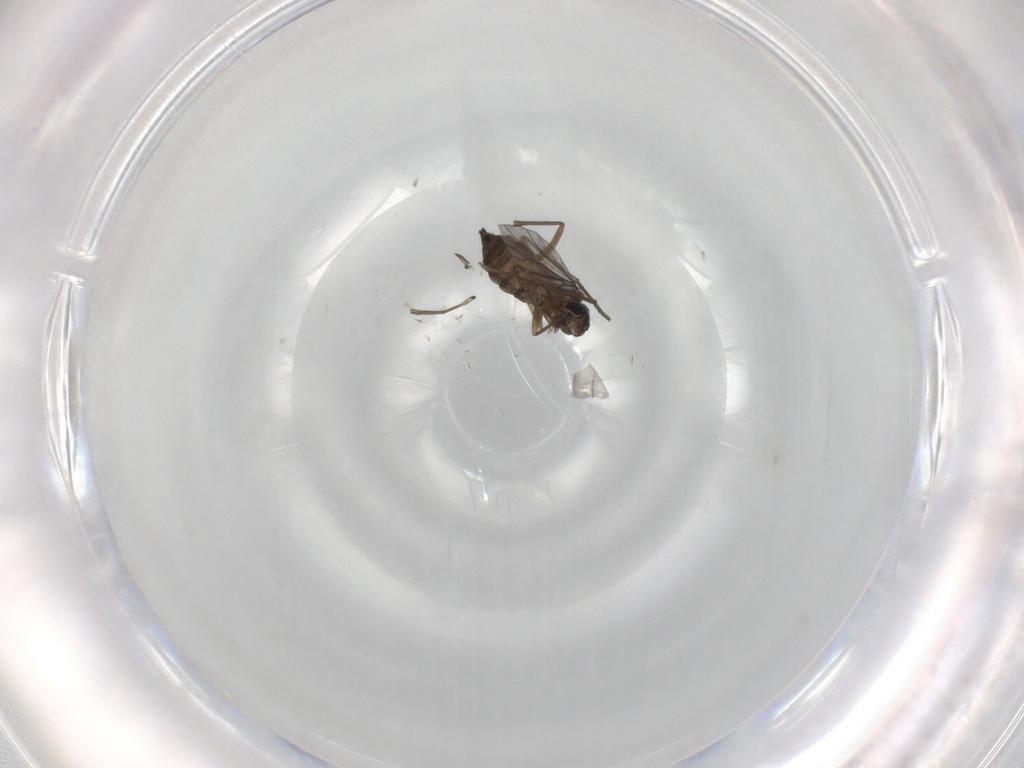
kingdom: Animalia
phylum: Arthropoda
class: Insecta
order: Diptera
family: Sciaridae
